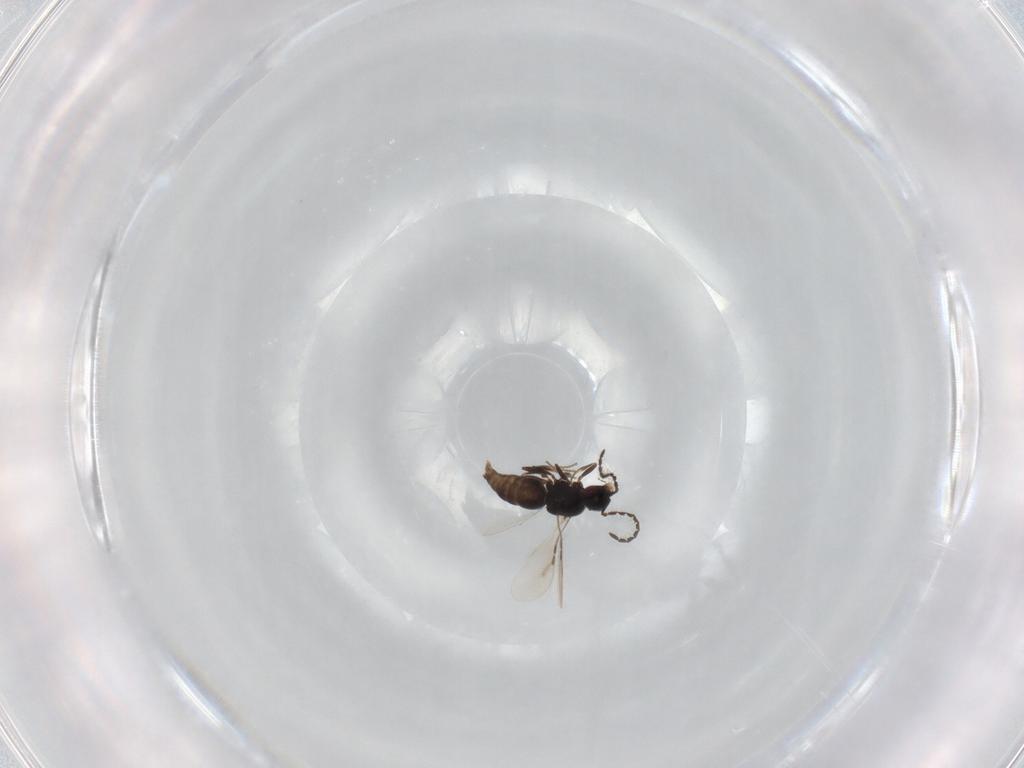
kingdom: Animalia
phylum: Arthropoda
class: Insecta
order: Hymenoptera
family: Ceraphronidae
